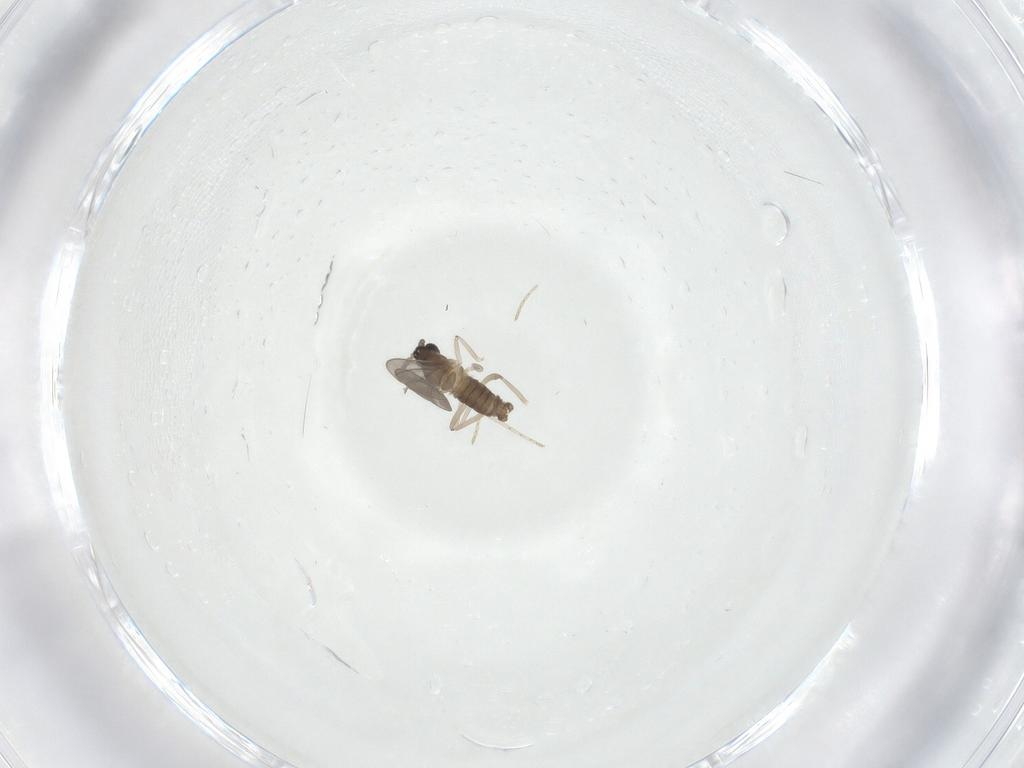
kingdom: Animalia
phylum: Arthropoda
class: Insecta
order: Diptera
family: Cecidomyiidae
